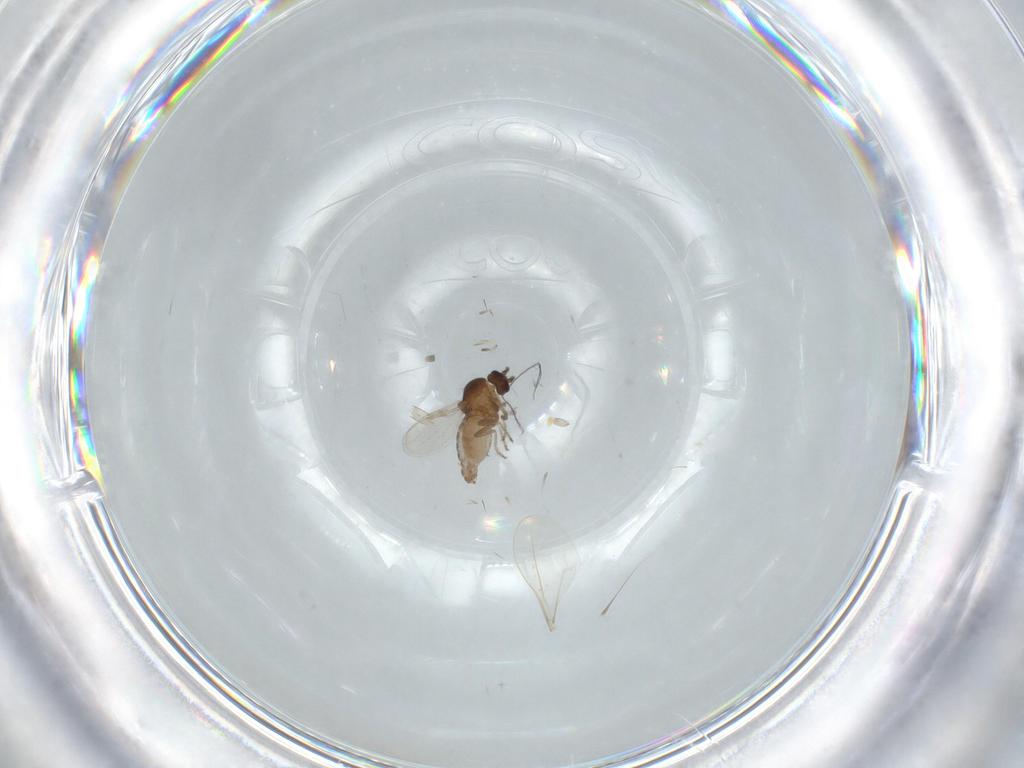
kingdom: Animalia
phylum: Arthropoda
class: Insecta
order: Diptera
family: Ceratopogonidae
